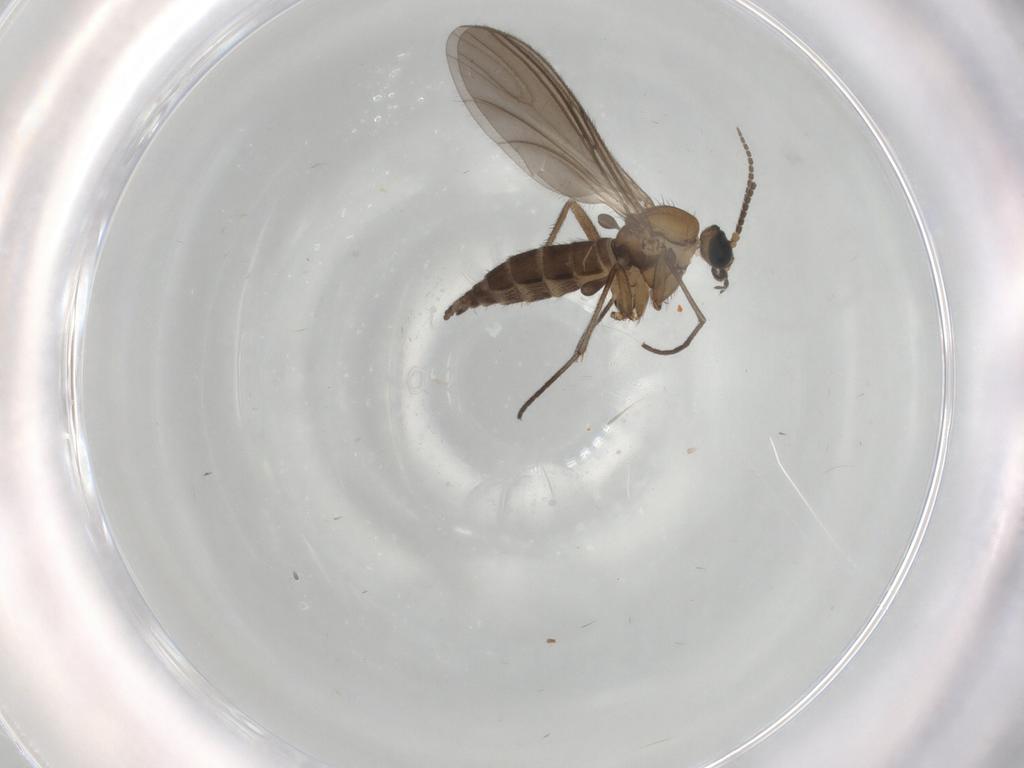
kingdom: Animalia
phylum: Arthropoda
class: Insecta
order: Diptera
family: Sciaridae
